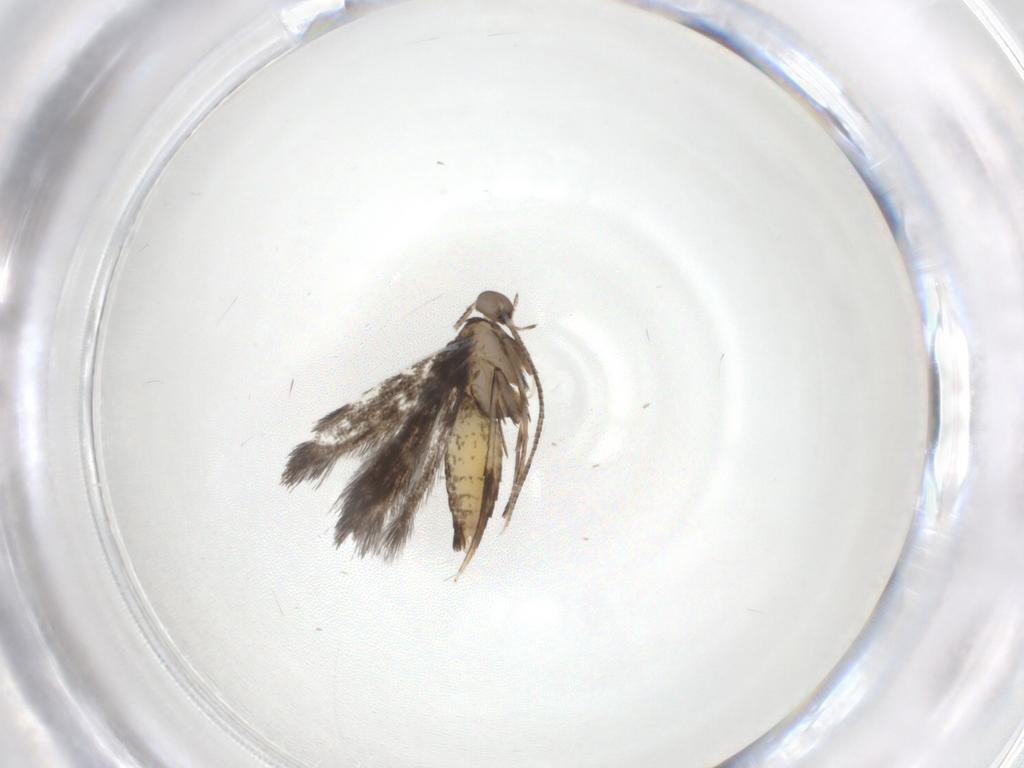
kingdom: Animalia
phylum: Arthropoda
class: Insecta
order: Lepidoptera
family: Gracillariidae
